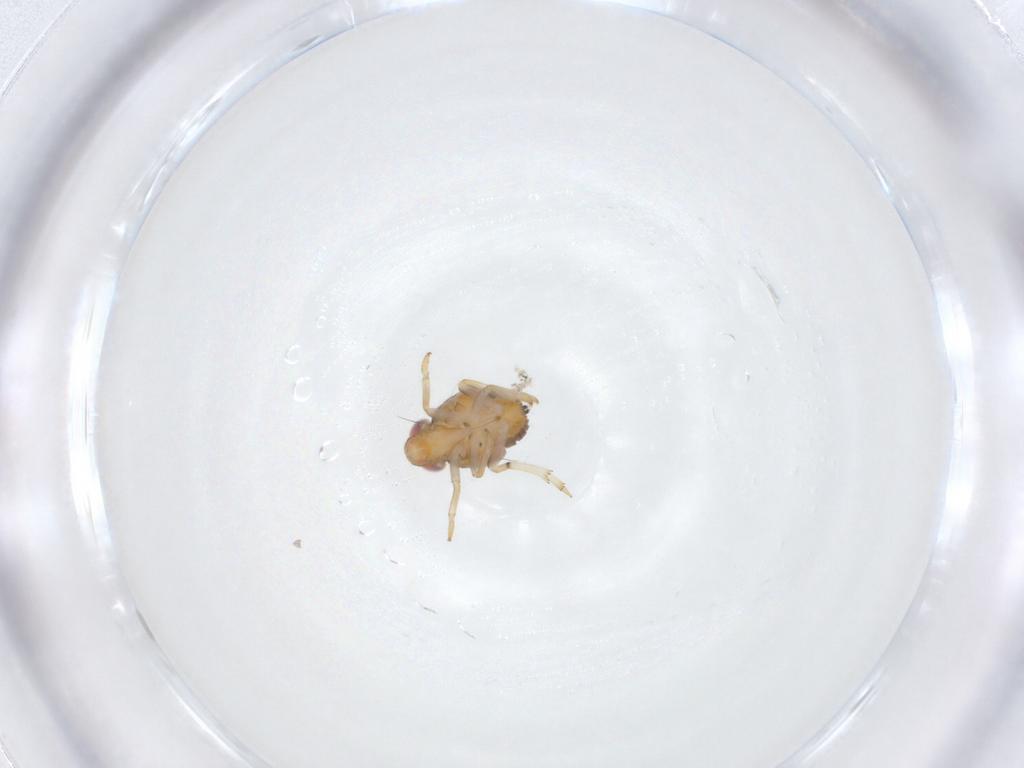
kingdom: Animalia
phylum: Arthropoda
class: Insecta
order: Hemiptera
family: Issidae
